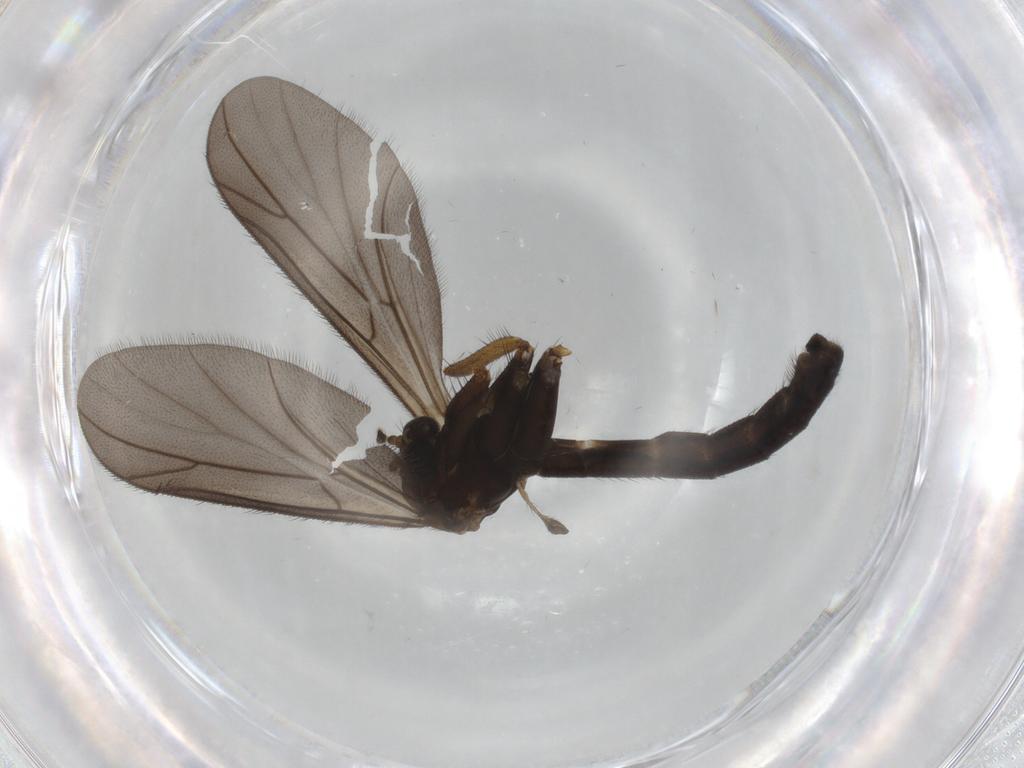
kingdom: Animalia
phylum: Arthropoda
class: Insecta
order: Diptera
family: Cecidomyiidae
